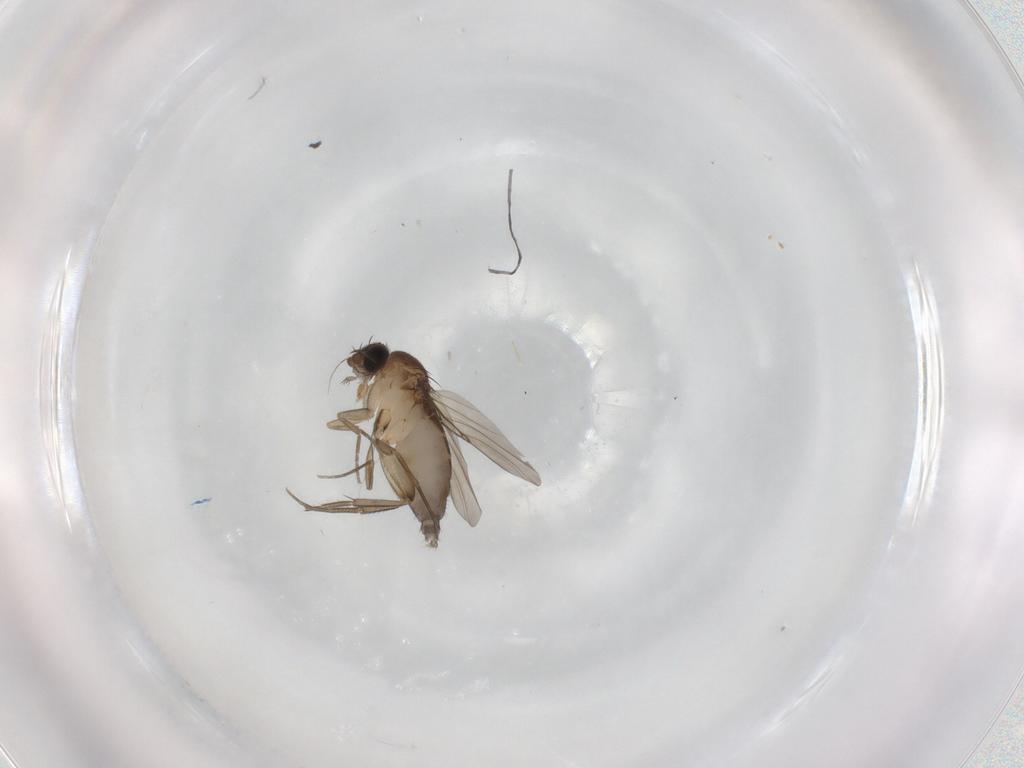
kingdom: Animalia
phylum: Arthropoda
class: Insecta
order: Diptera
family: Phoridae
